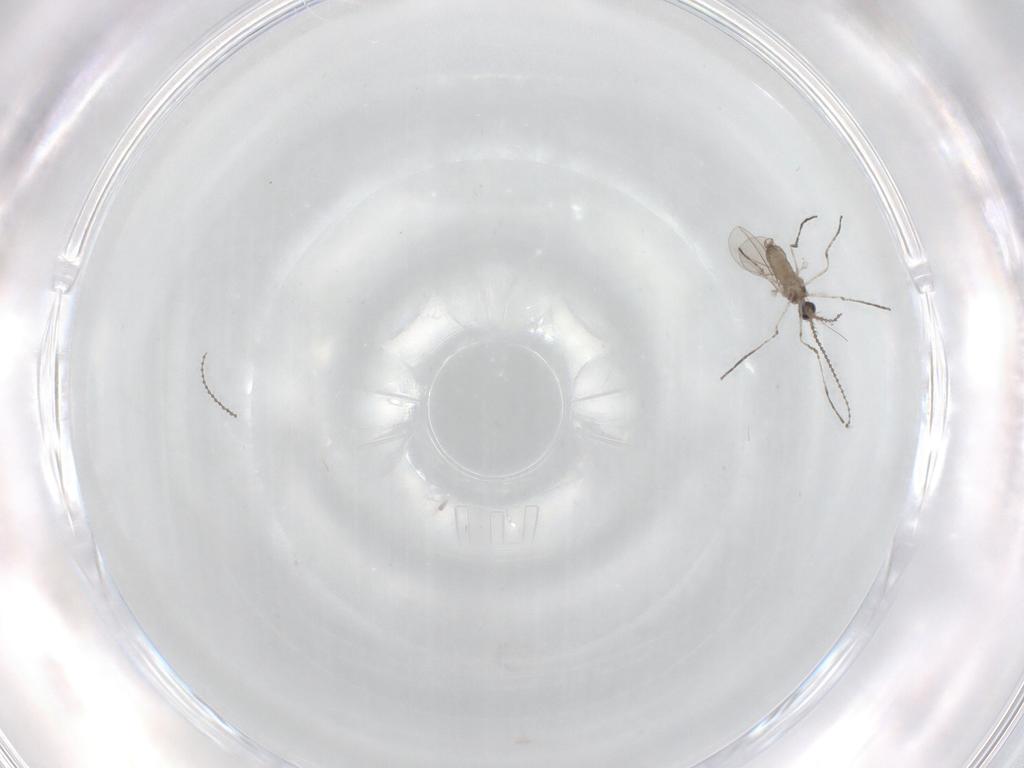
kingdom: Animalia
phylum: Arthropoda
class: Insecta
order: Diptera
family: Cecidomyiidae
